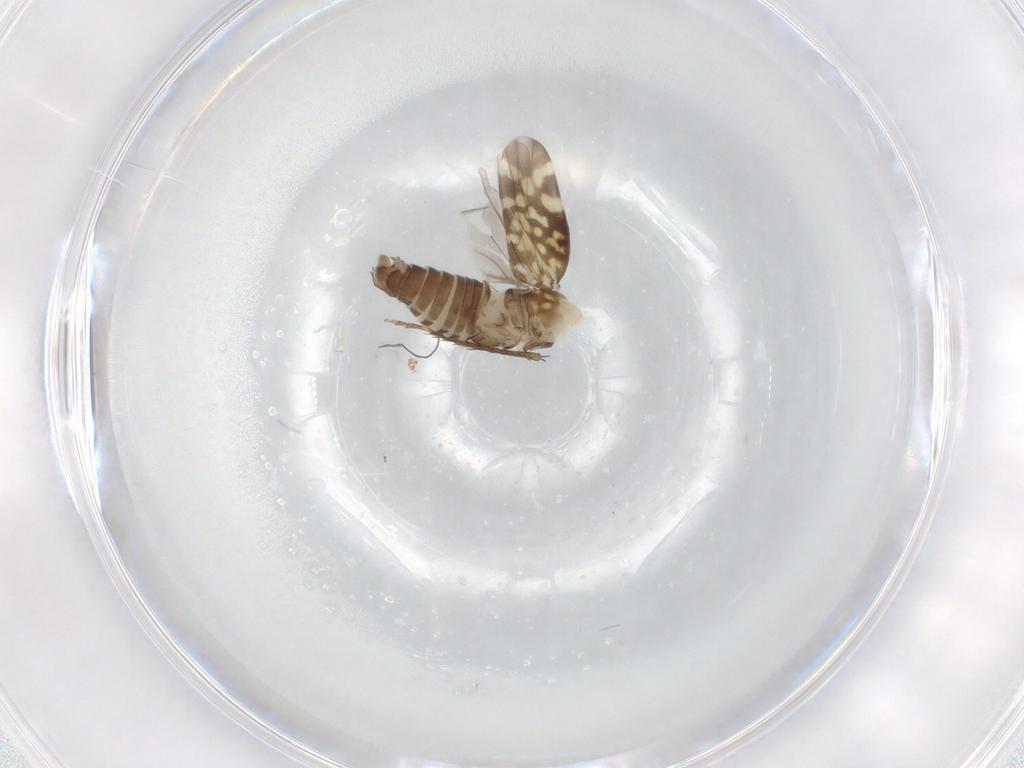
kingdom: Animalia
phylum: Arthropoda
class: Insecta
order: Hemiptera
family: Cicadellidae
